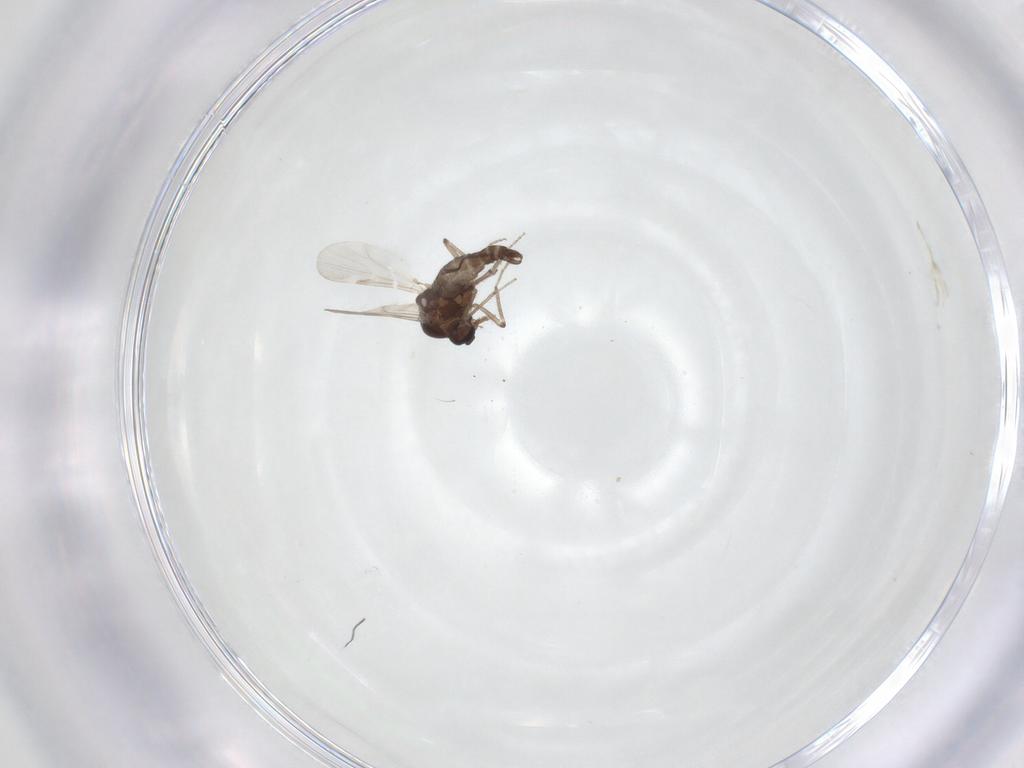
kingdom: Animalia
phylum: Arthropoda
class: Insecta
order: Diptera
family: Ceratopogonidae
